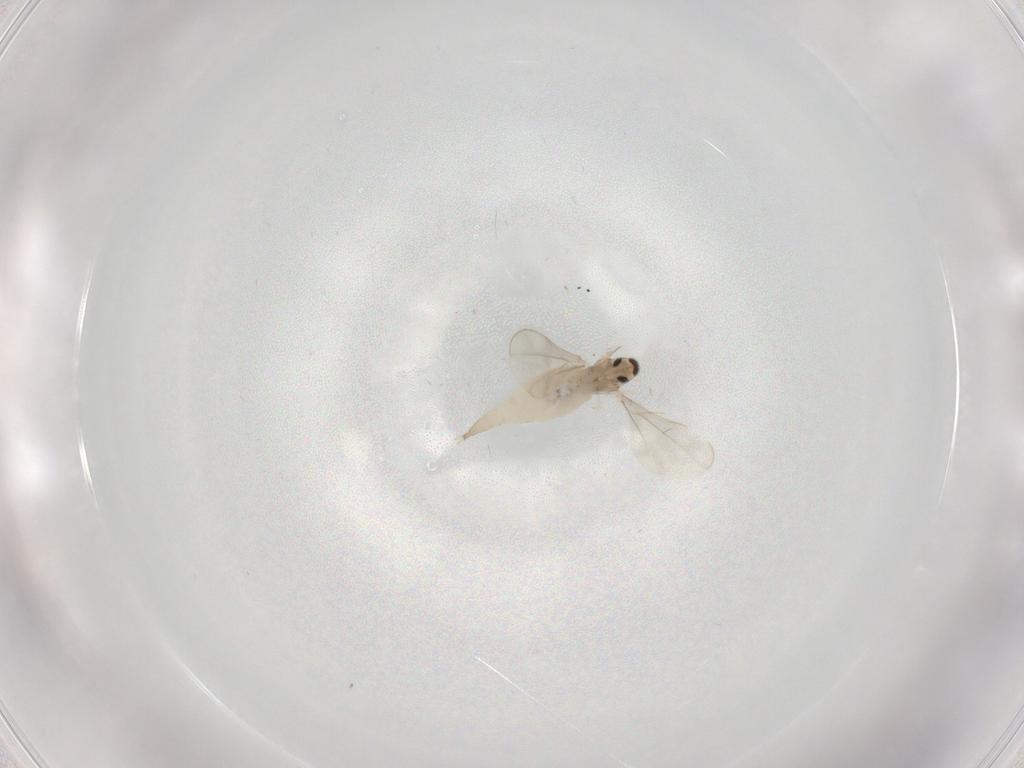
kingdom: Animalia
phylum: Arthropoda
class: Insecta
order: Diptera
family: Cecidomyiidae
